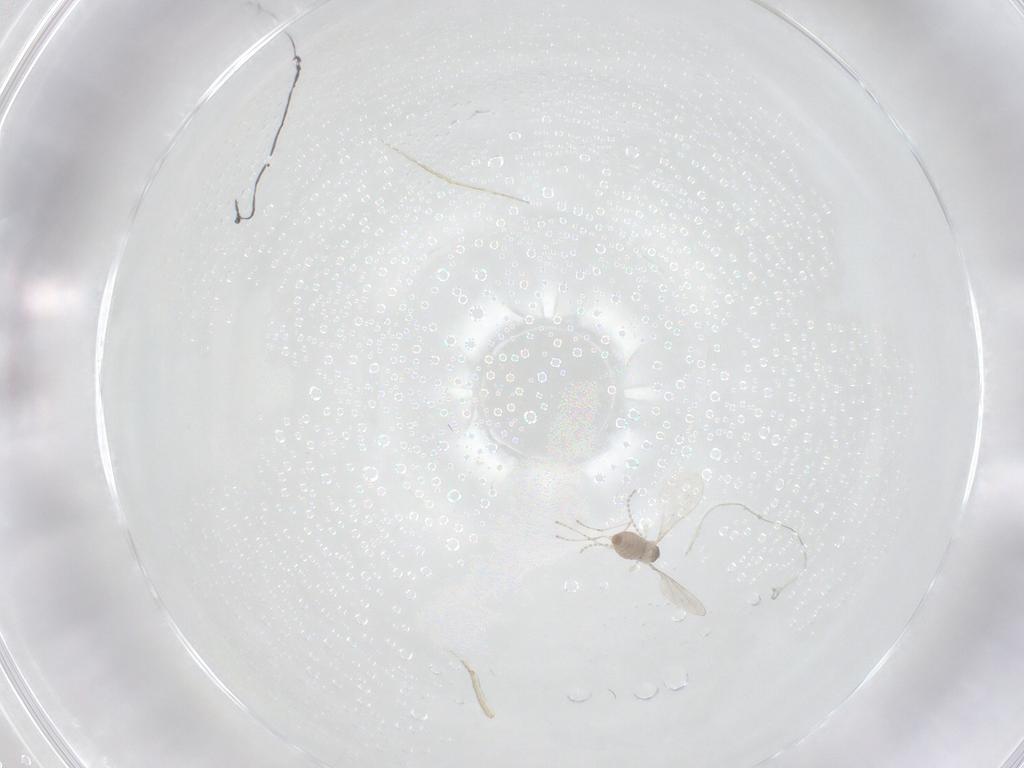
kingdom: Animalia
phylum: Arthropoda
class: Insecta
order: Diptera
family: Cecidomyiidae
